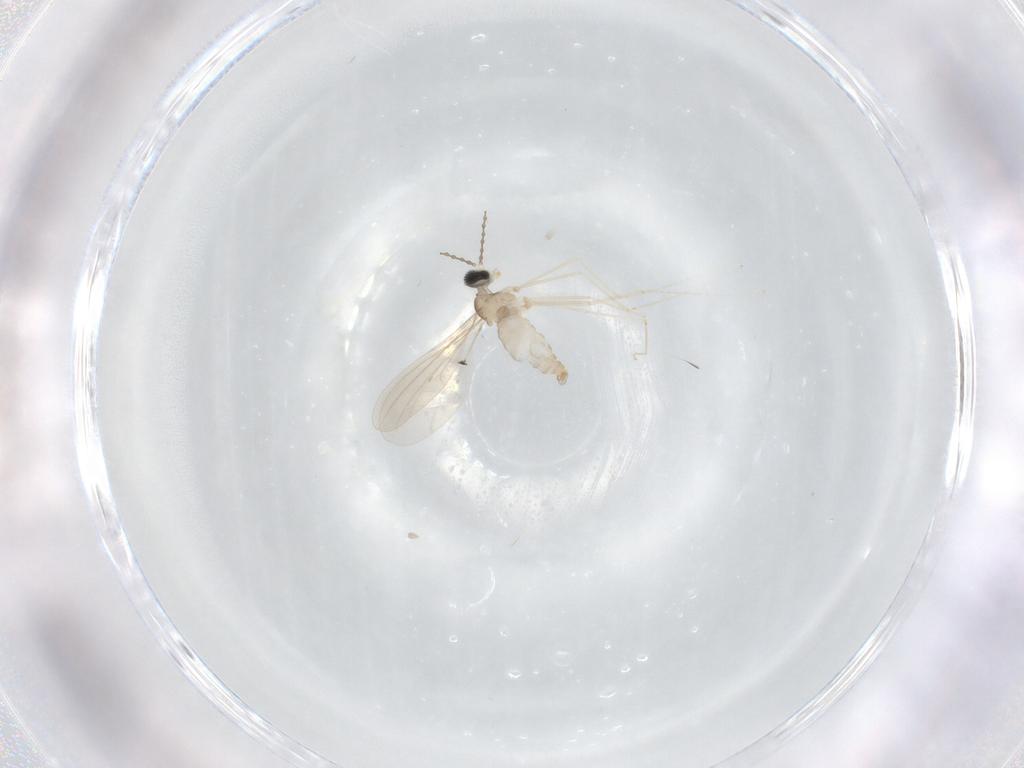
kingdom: Animalia
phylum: Arthropoda
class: Insecta
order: Diptera
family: Cecidomyiidae
